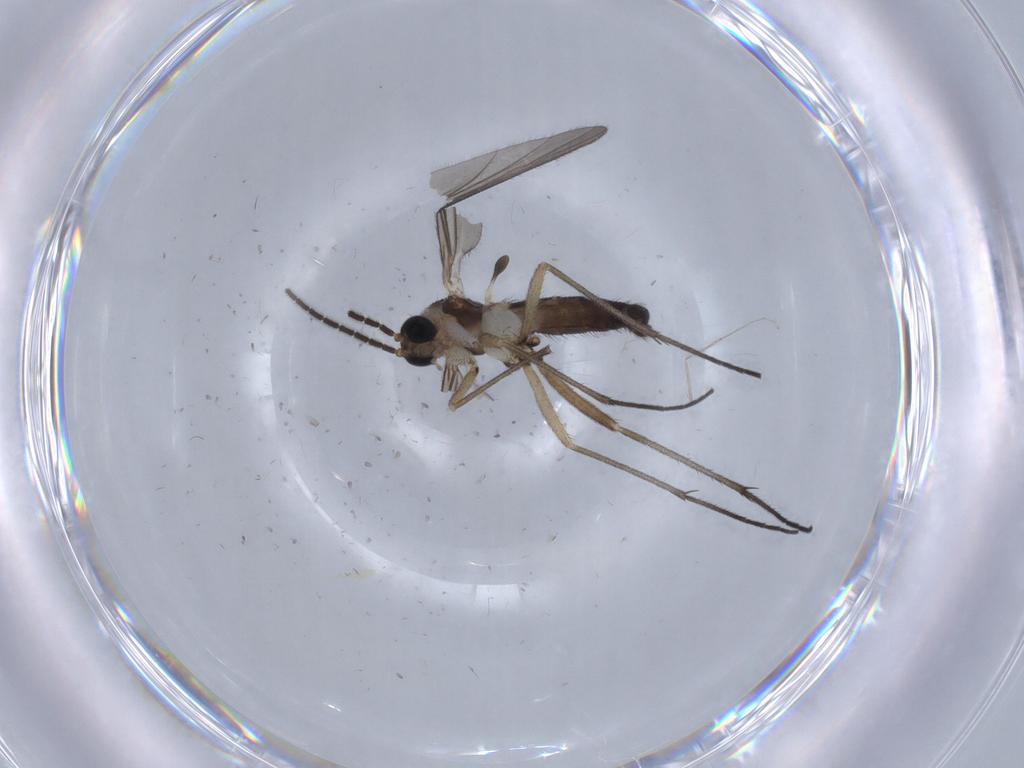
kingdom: Animalia
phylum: Arthropoda
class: Insecta
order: Diptera
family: Sciaridae
